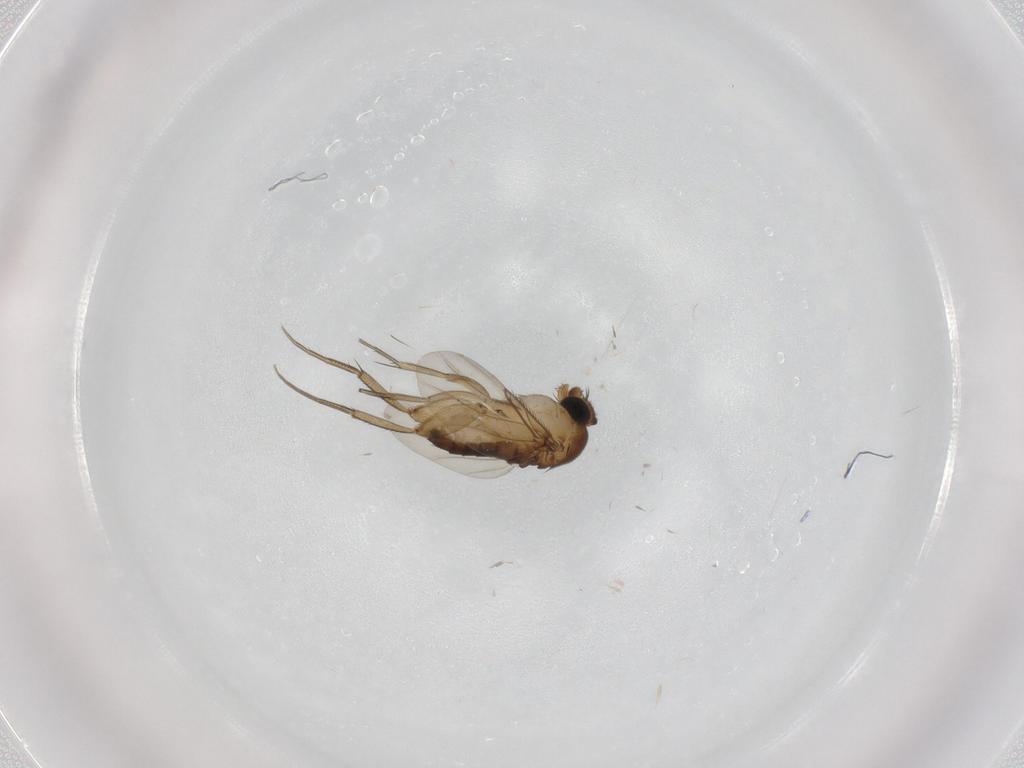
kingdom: Animalia
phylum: Arthropoda
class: Insecta
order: Diptera
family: Phoridae
